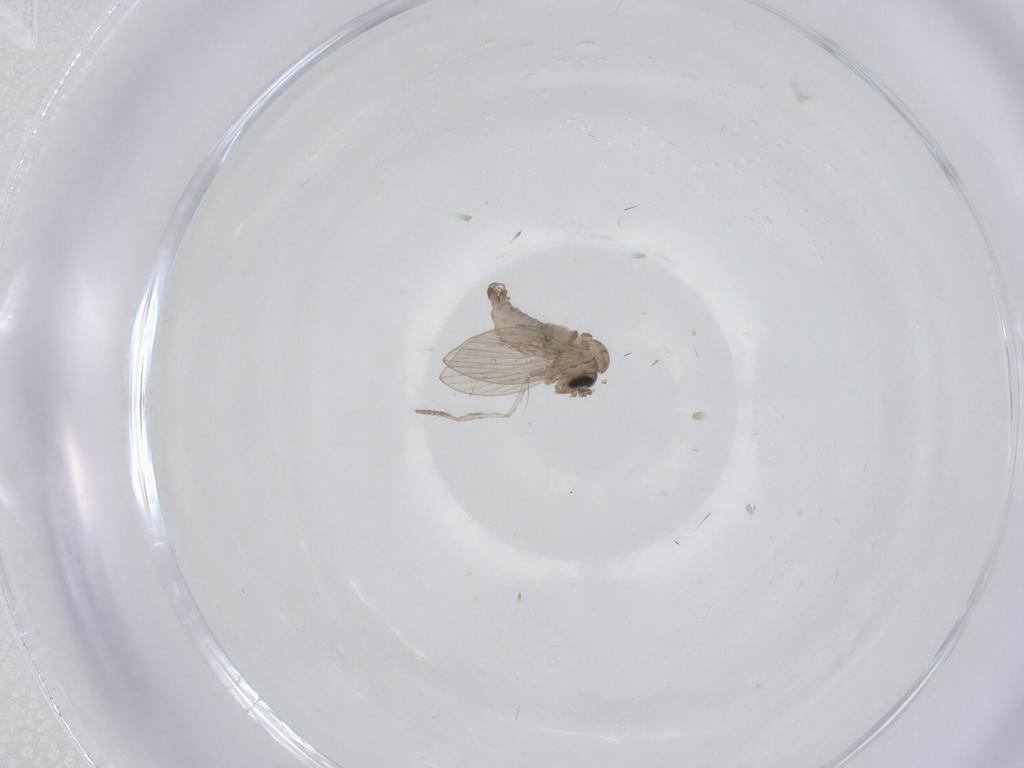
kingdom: Animalia
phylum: Arthropoda
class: Insecta
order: Diptera
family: Psychodidae
